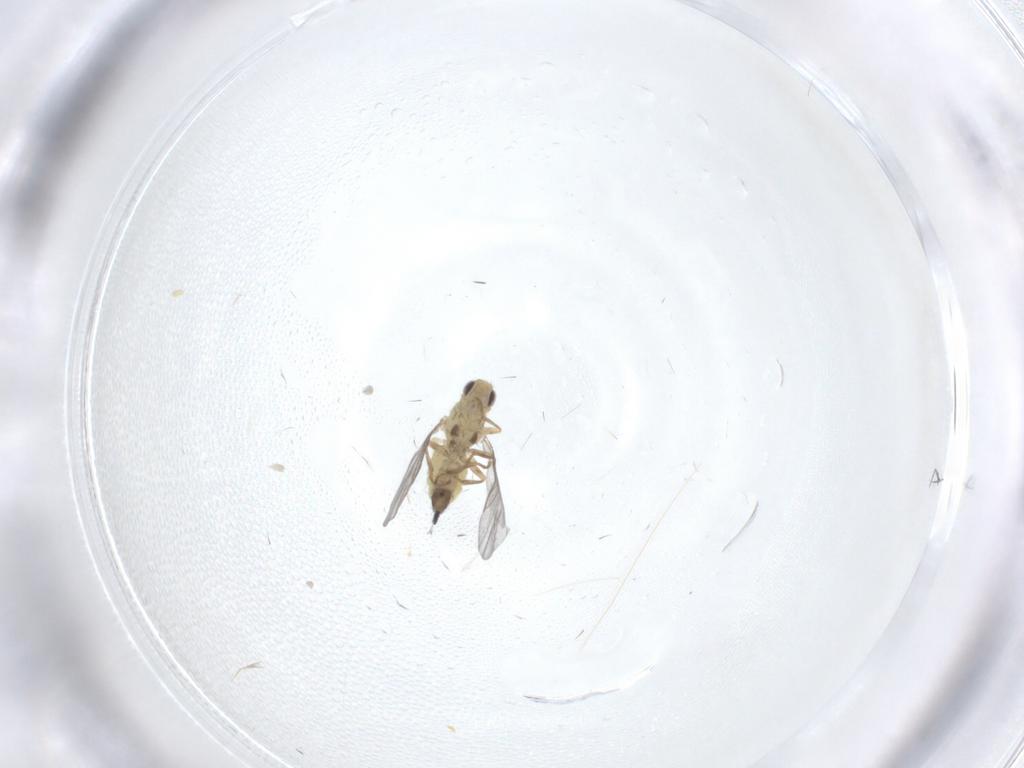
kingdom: Animalia
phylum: Arthropoda
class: Insecta
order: Diptera
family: Agromyzidae
